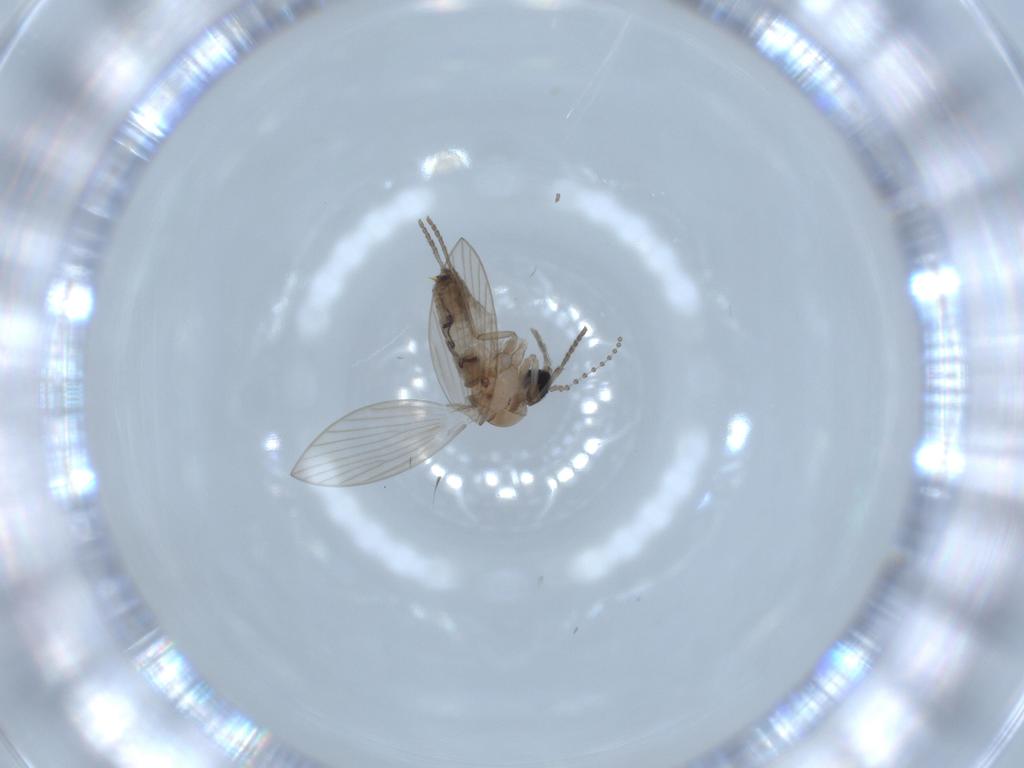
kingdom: Animalia
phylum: Arthropoda
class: Insecta
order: Diptera
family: Psychodidae
